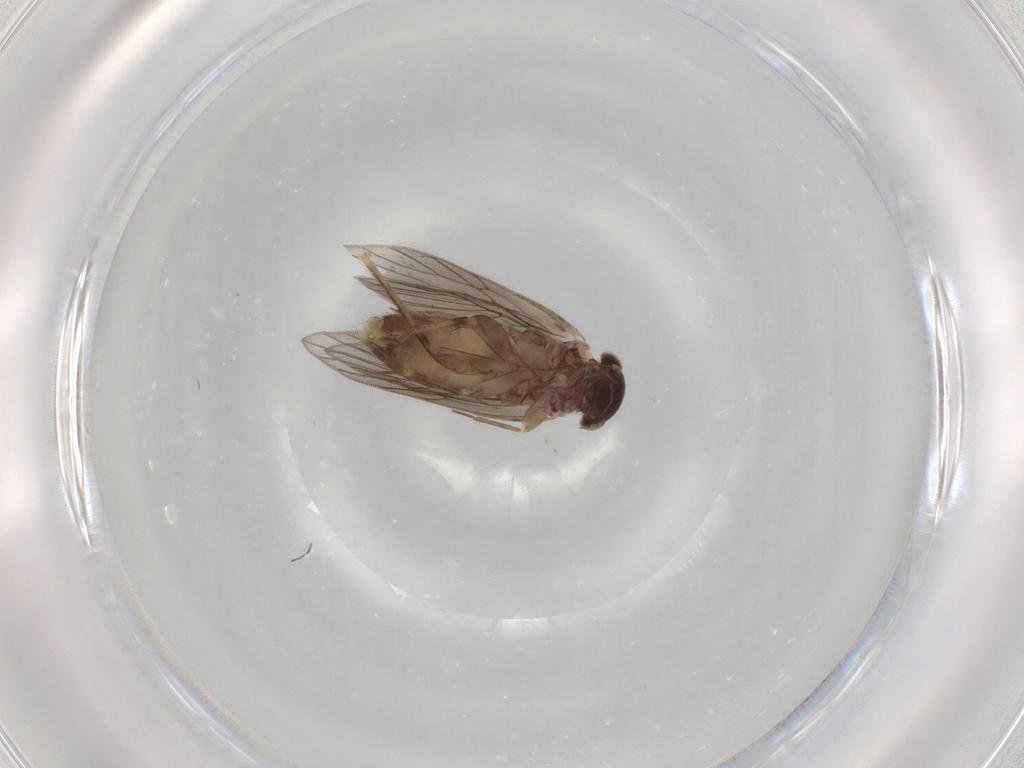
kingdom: Animalia
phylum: Arthropoda
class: Insecta
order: Psocodea
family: Lepidopsocidae
